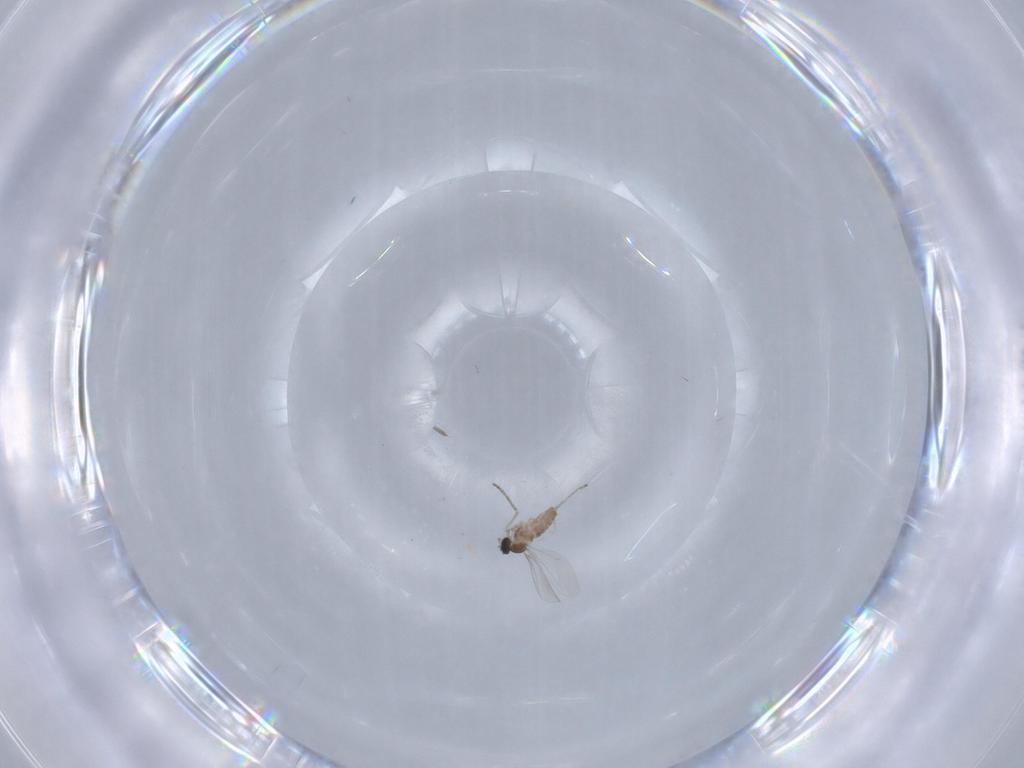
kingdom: Animalia
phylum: Arthropoda
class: Insecta
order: Diptera
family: Cecidomyiidae
